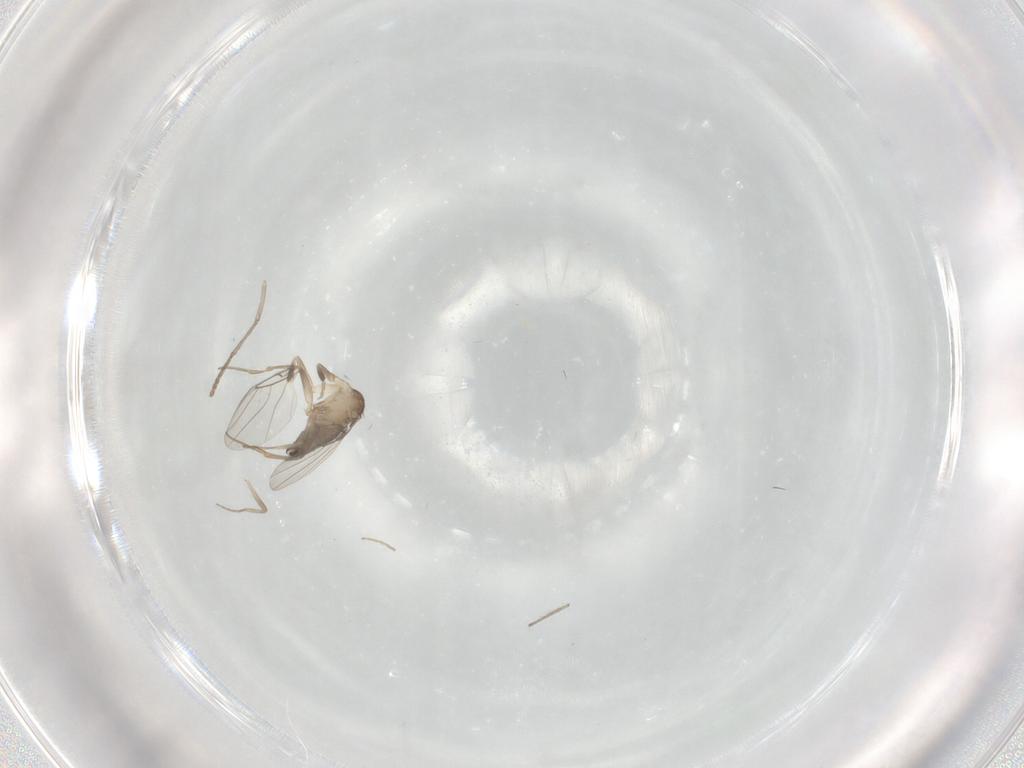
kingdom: Animalia
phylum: Arthropoda
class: Insecta
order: Diptera
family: Phoridae
